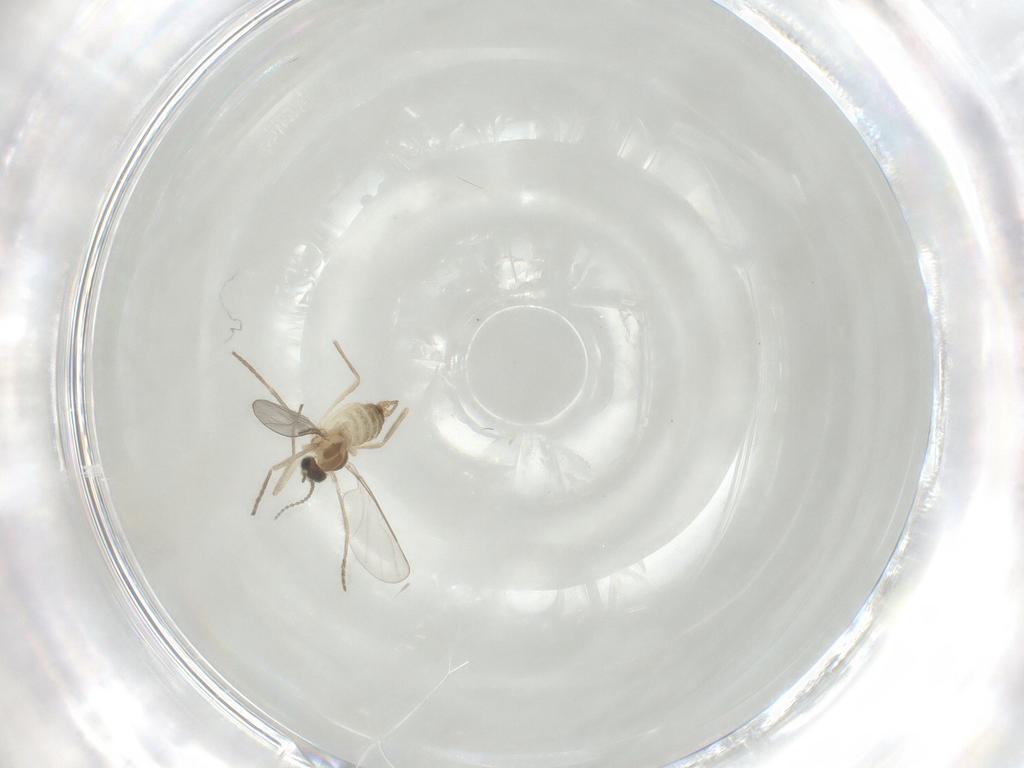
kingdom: Animalia
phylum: Arthropoda
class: Insecta
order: Diptera
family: Cecidomyiidae
